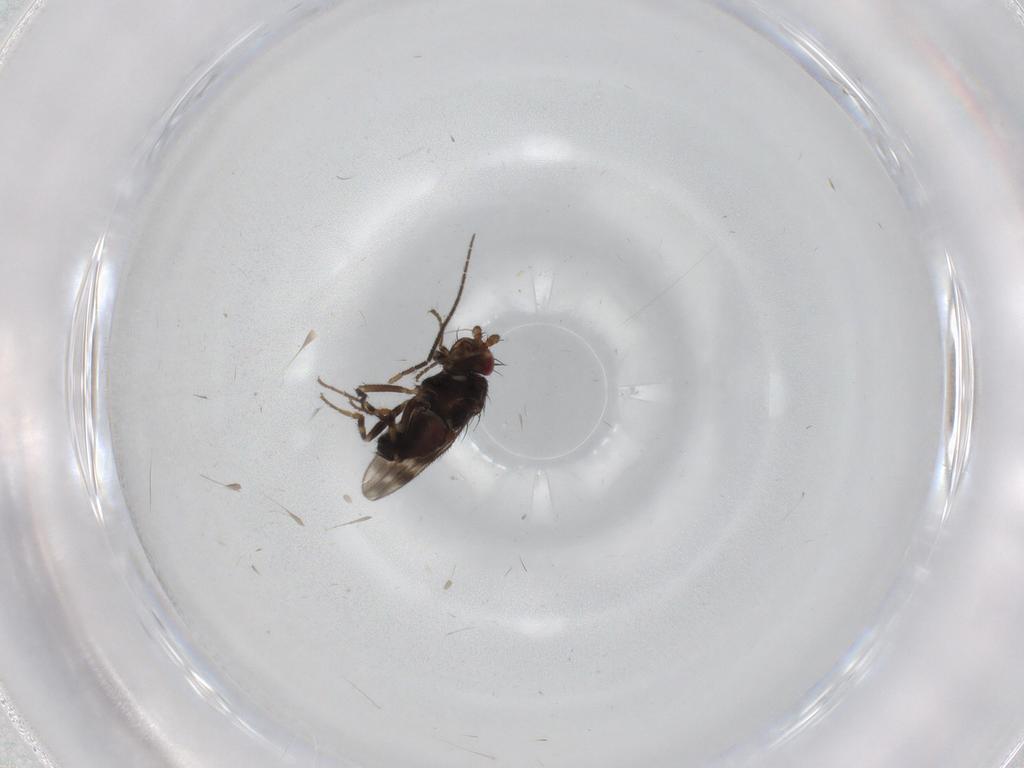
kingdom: Animalia
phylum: Arthropoda
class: Insecta
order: Diptera
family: Sphaeroceridae
